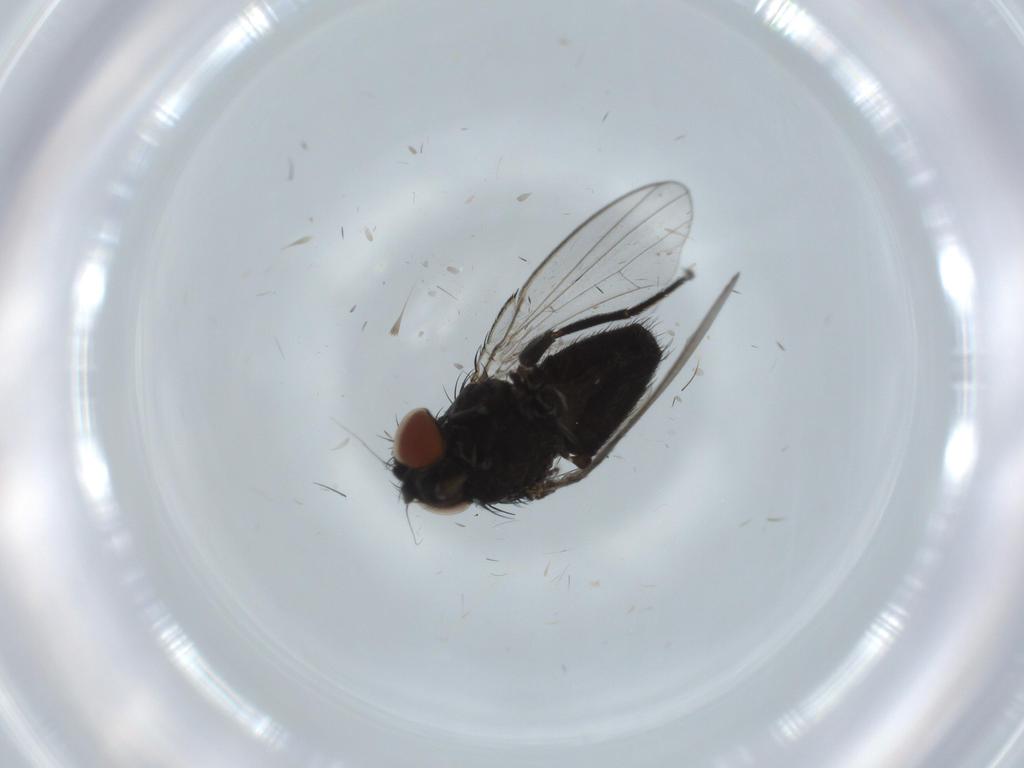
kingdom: Animalia
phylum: Arthropoda
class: Insecta
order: Diptera
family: Milichiidae
